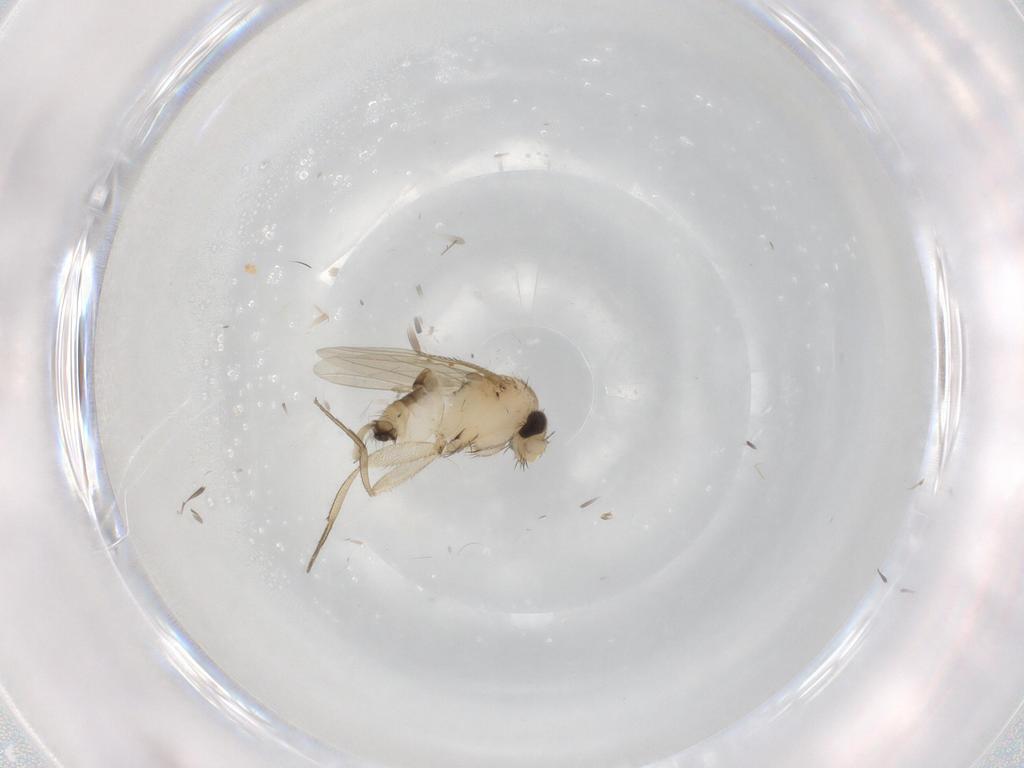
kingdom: Animalia
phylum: Arthropoda
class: Insecta
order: Diptera
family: Phoridae
